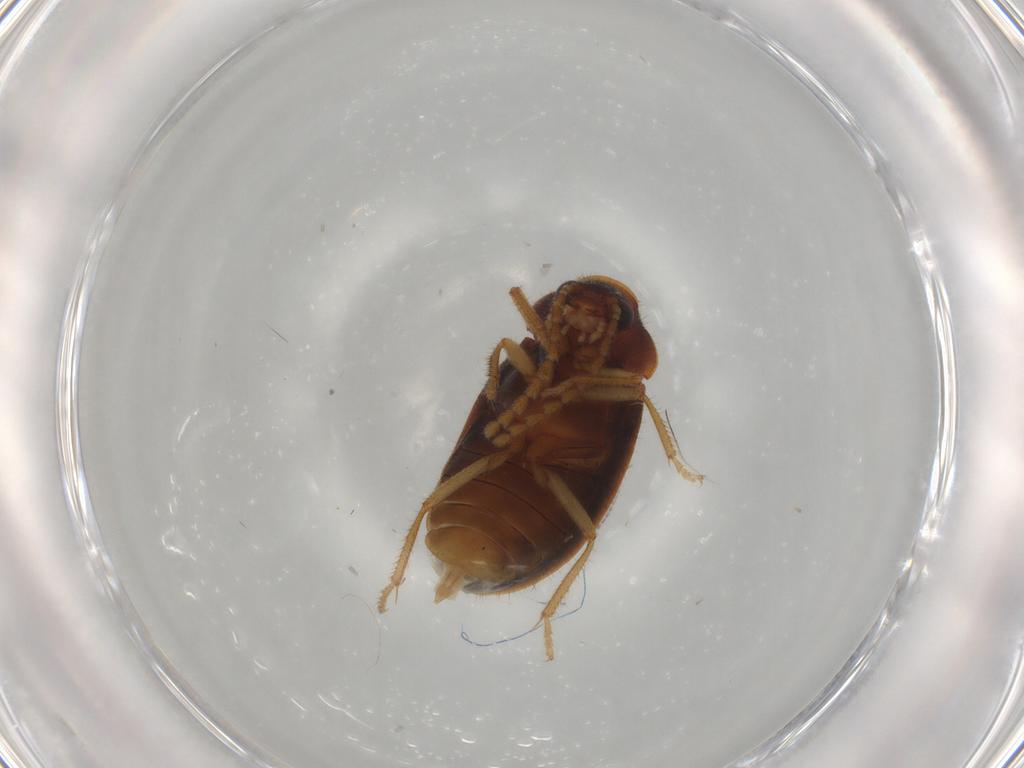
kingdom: Animalia
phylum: Arthropoda
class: Insecta
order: Coleoptera
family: Ptilodactylidae
